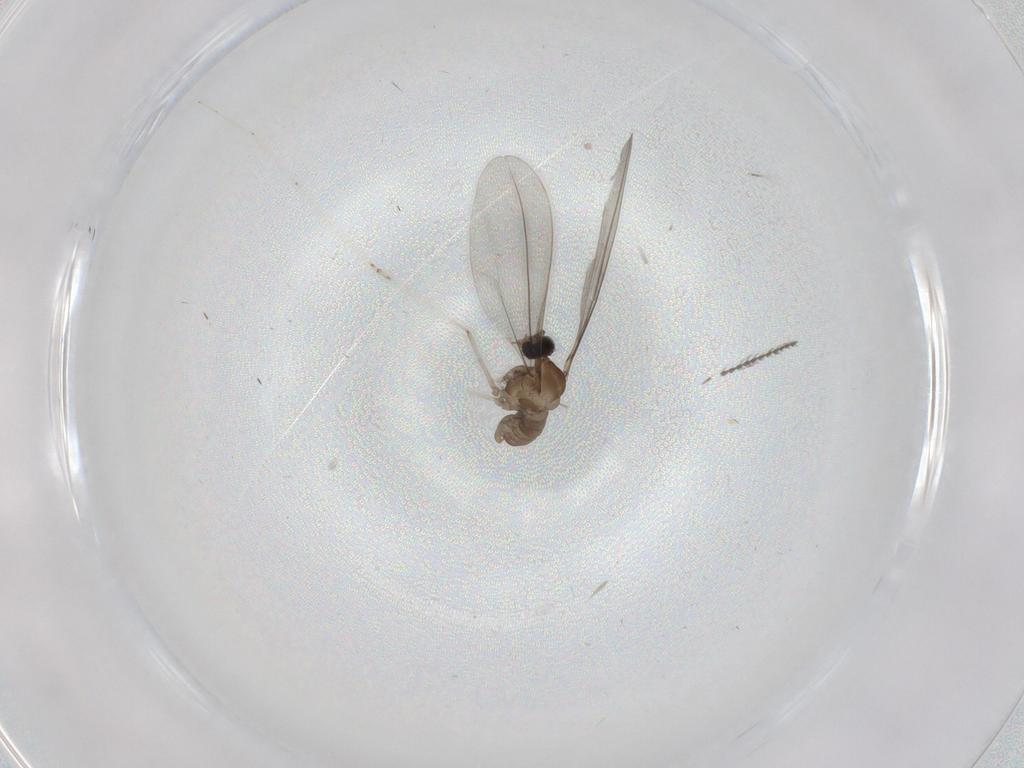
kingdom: Animalia
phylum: Arthropoda
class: Insecta
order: Diptera
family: Cecidomyiidae
